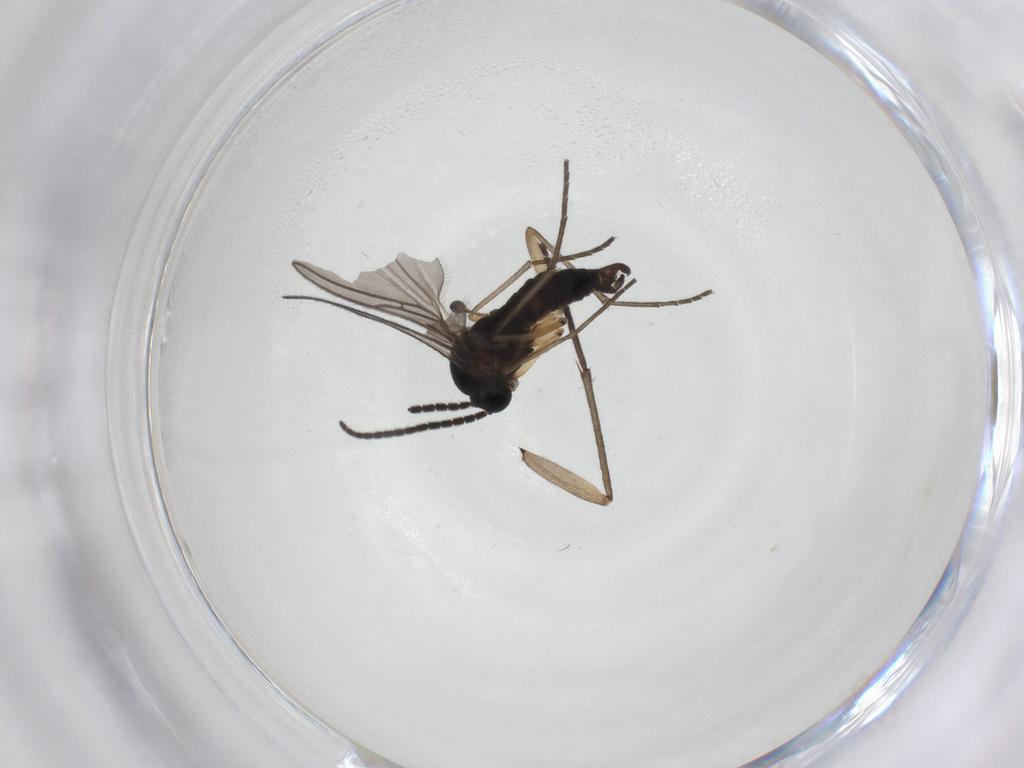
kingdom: Animalia
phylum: Arthropoda
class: Insecta
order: Diptera
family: Sciaridae
